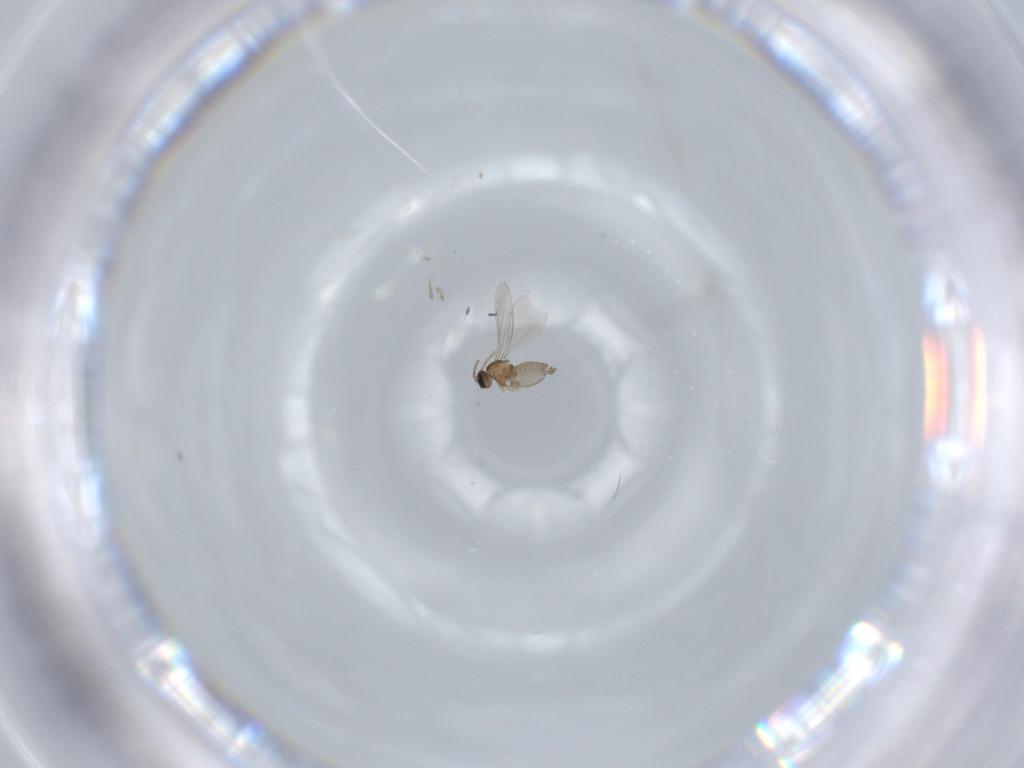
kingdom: Animalia
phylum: Arthropoda
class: Insecta
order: Diptera
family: Cecidomyiidae
